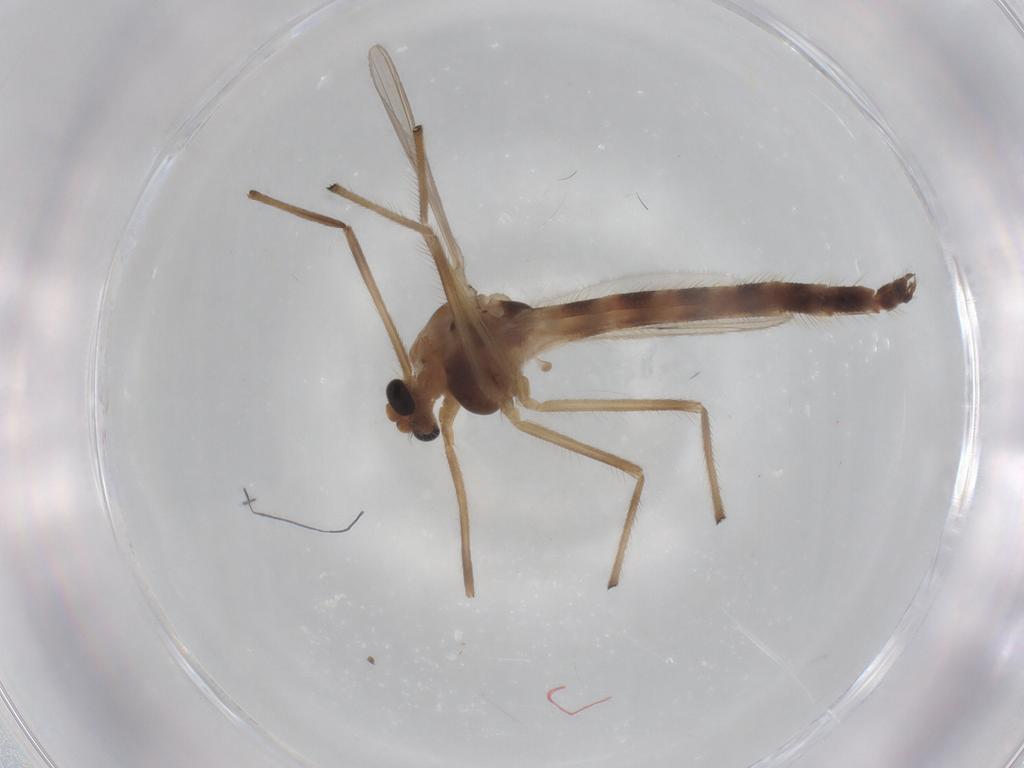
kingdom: Animalia
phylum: Arthropoda
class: Insecta
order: Diptera
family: Chironomidae
